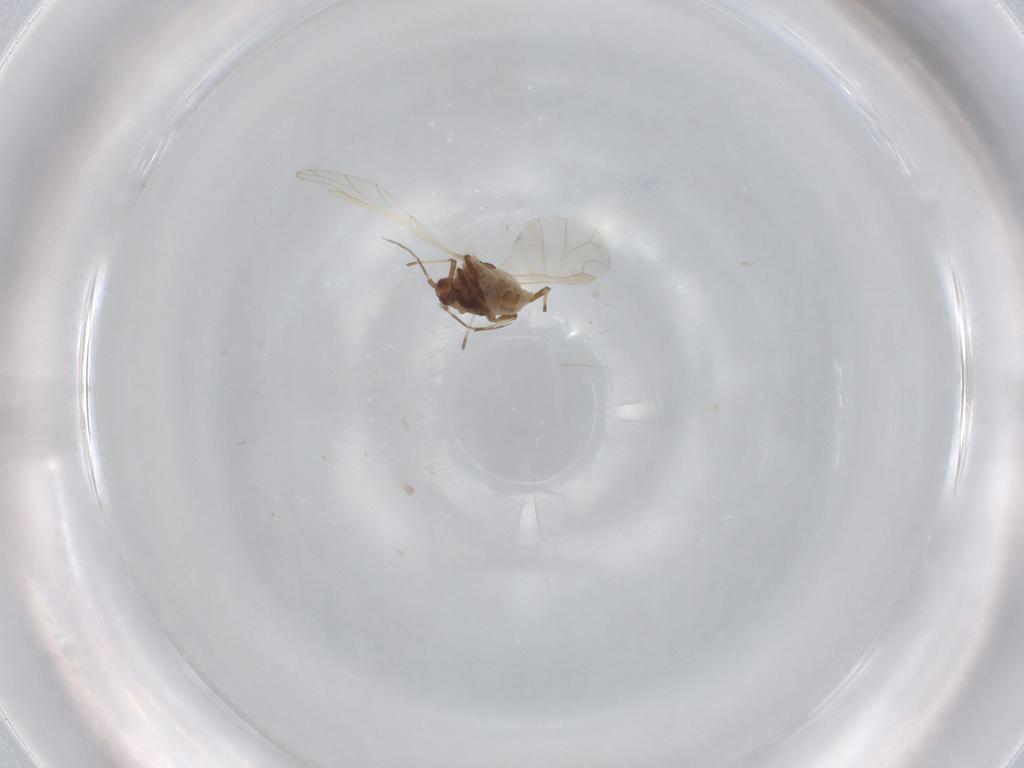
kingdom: Animalia
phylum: Arthropoda
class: Insecta
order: Hemiptera
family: Aphididae
